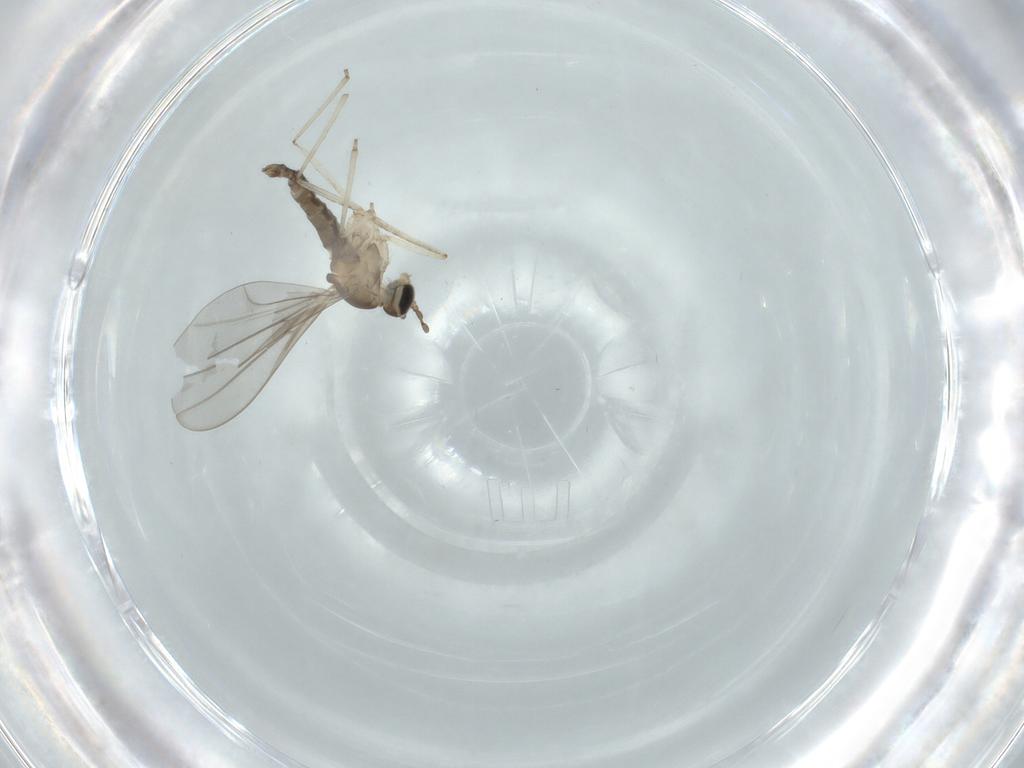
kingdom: Animalia
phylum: Arthropoda
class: Insecta
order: Diptera
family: Cecidomyiidae
